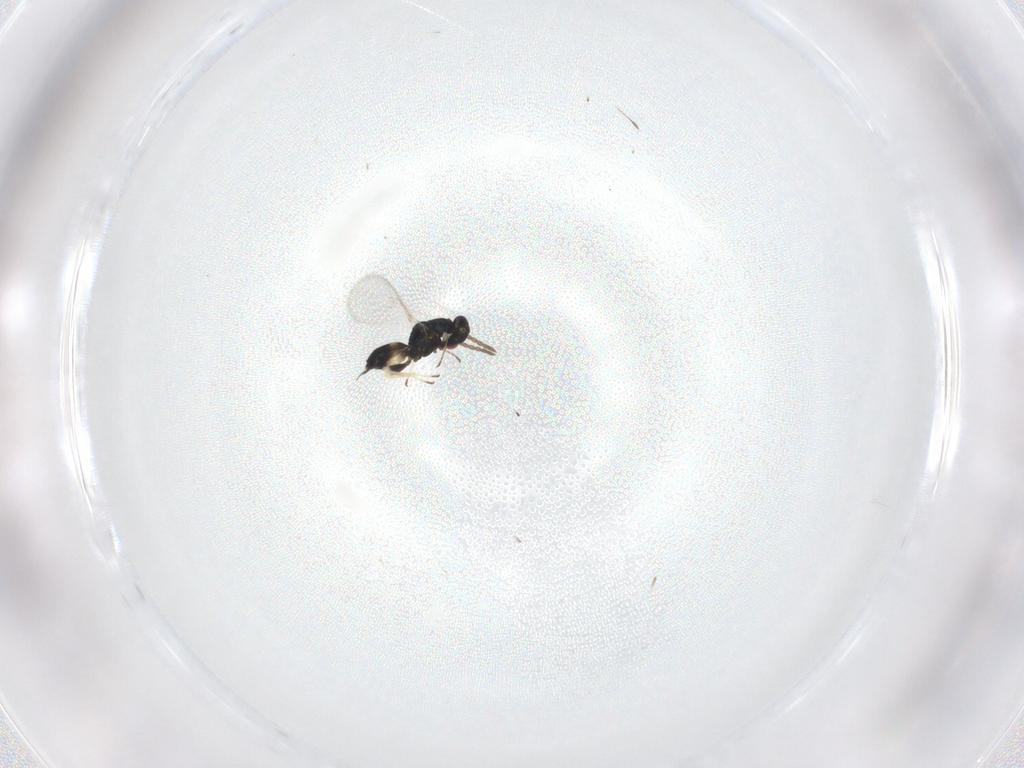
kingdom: Animalia
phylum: Arthropoda
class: Insecta
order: Hymenoptera
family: Eulophidae
